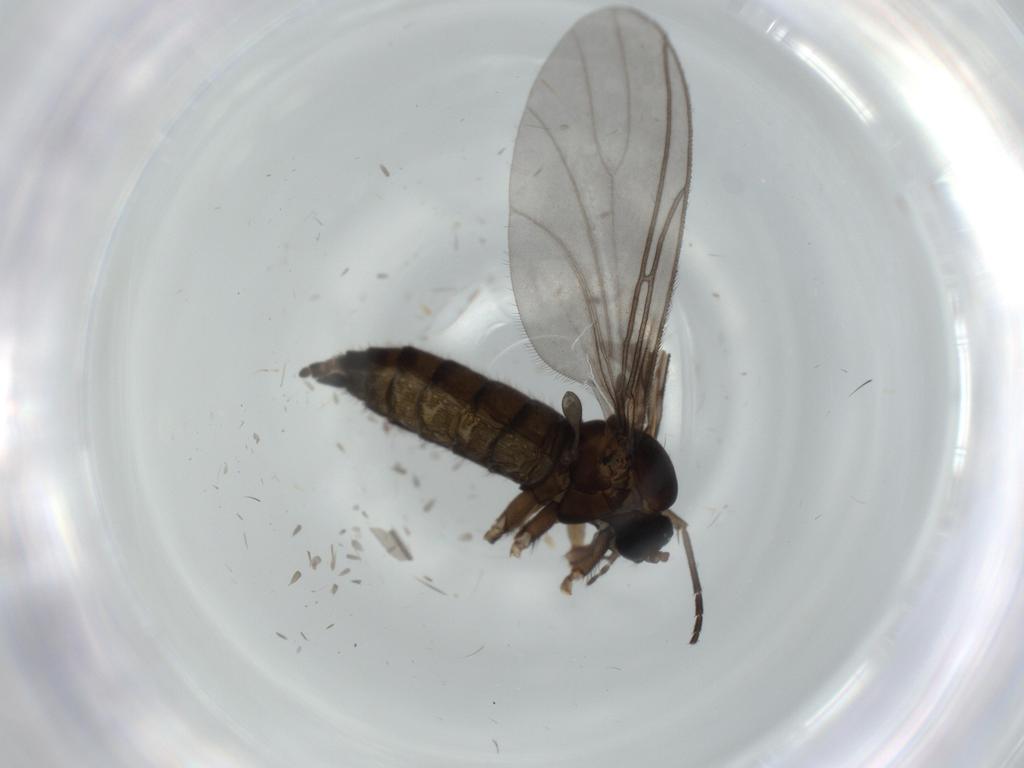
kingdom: Animalia
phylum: Arthropoda
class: Insecta
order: Diptera
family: Sciaridae
